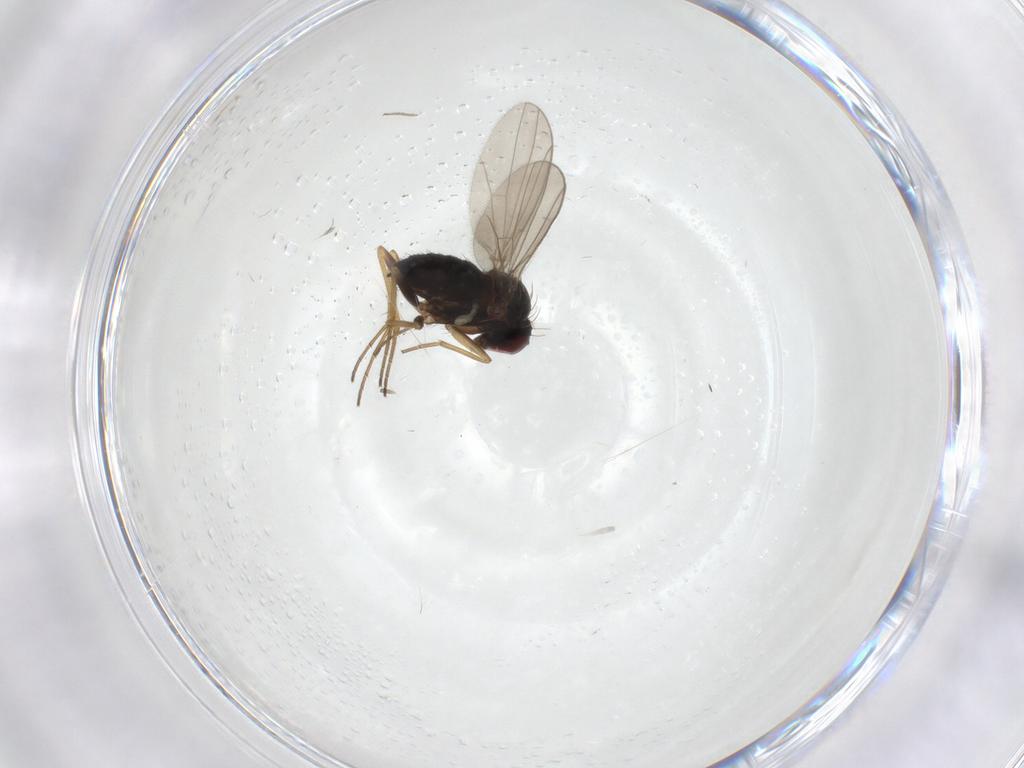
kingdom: Animalia
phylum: Arthropoda
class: Insecta
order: Diptera
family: Dolichopodidae
